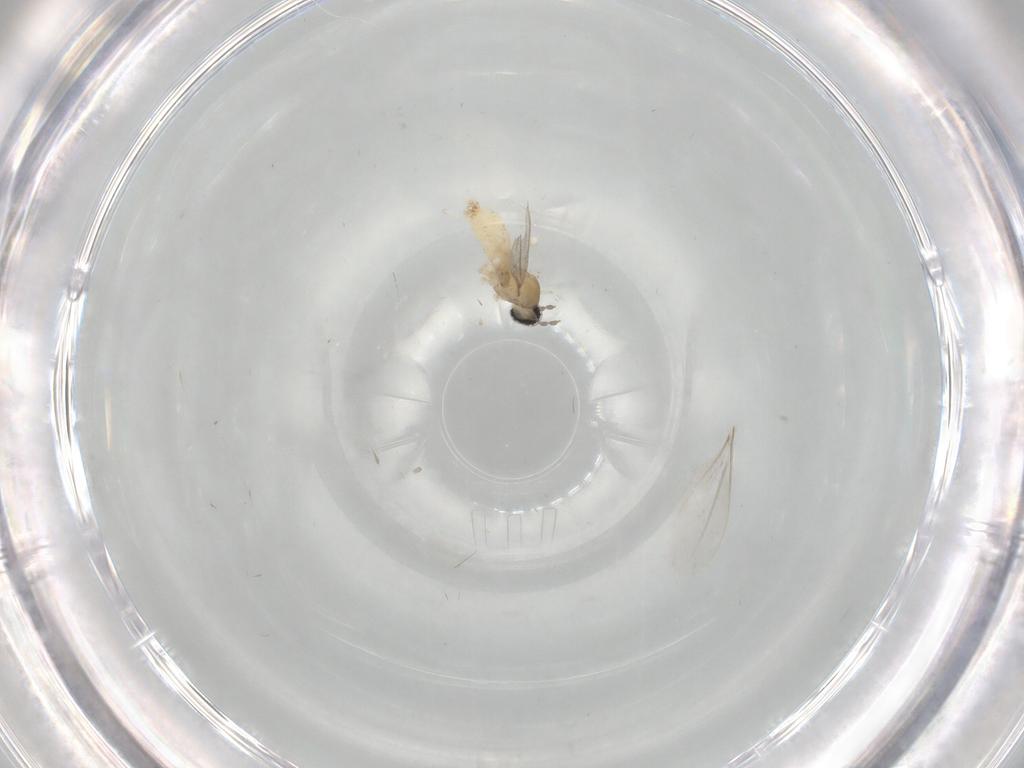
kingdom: Animalia
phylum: Arthropoda
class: Insecta
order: Diptera
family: Cecidomyiidae
